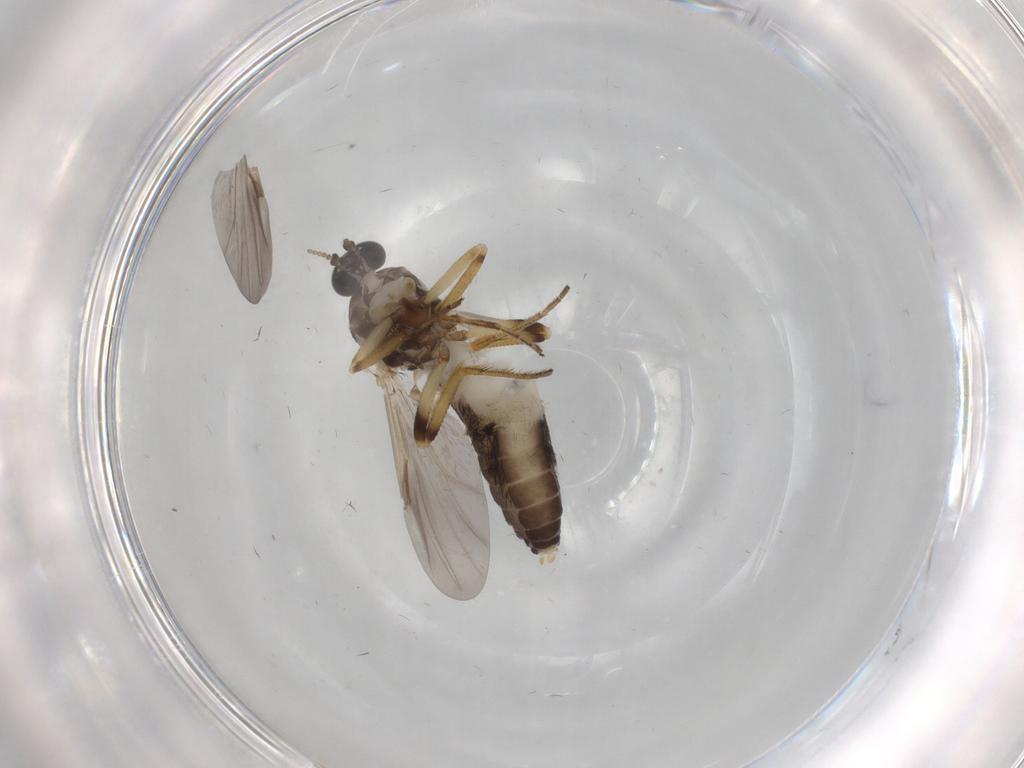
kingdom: Animalia
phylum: Arthropoda
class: Insecta
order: Diptera
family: Ceratopogonidae
